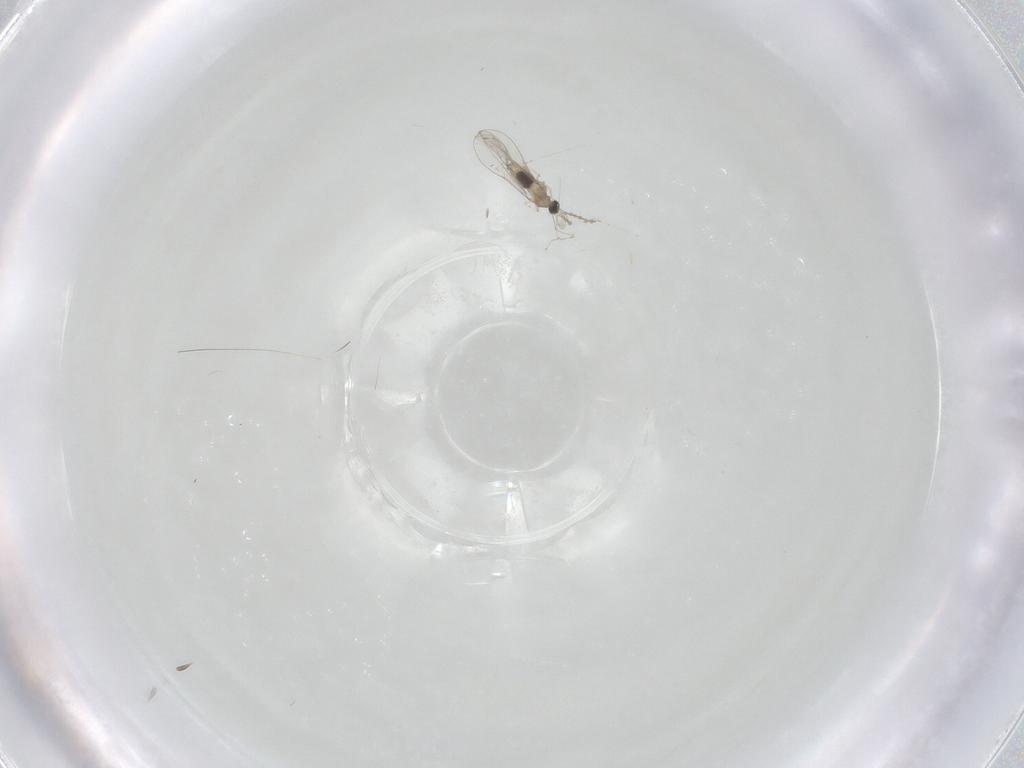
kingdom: Animalia
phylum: Arthropoda
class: Insecta
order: Diptera
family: Cecidomyiidae
